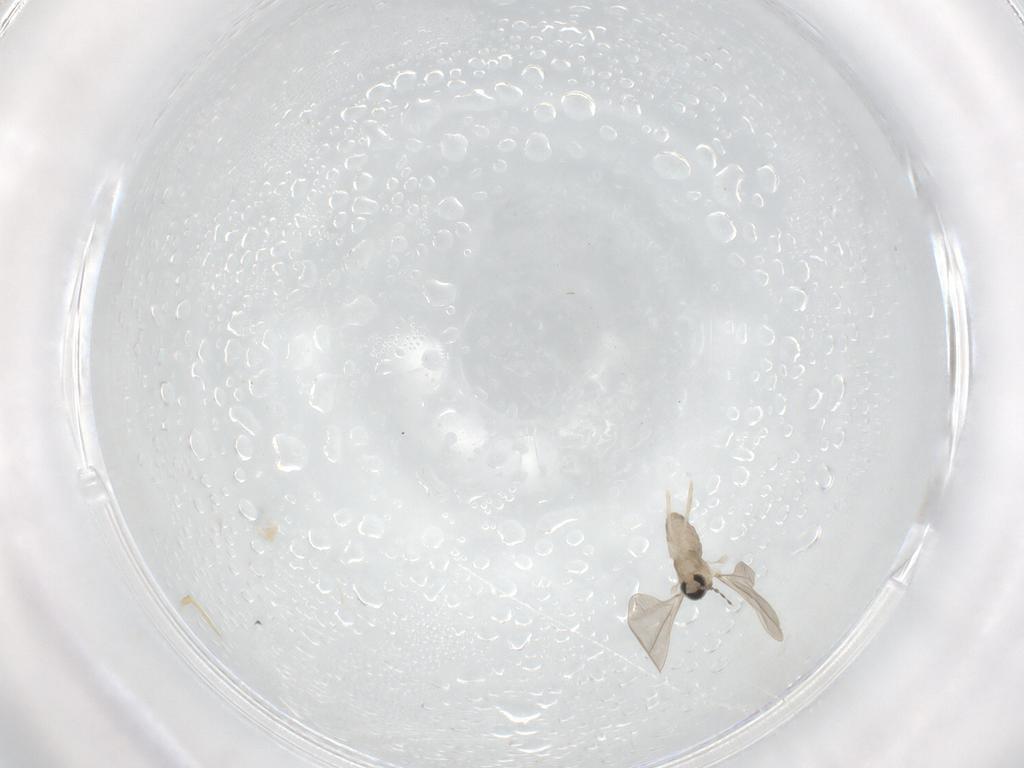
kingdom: Animalia
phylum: Arthropoda
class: Insecta
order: Diptera
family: Cecidomyiidae
